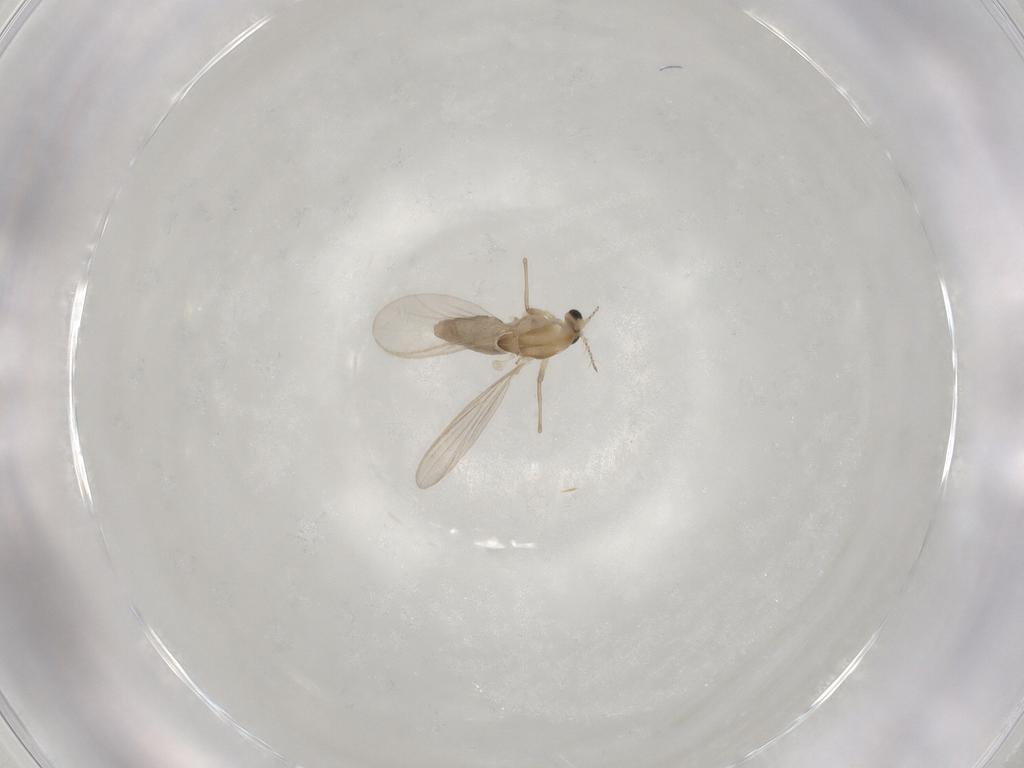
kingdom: Animalia
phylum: Arthropoda
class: Insecta
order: Diptera
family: Chironomidae
